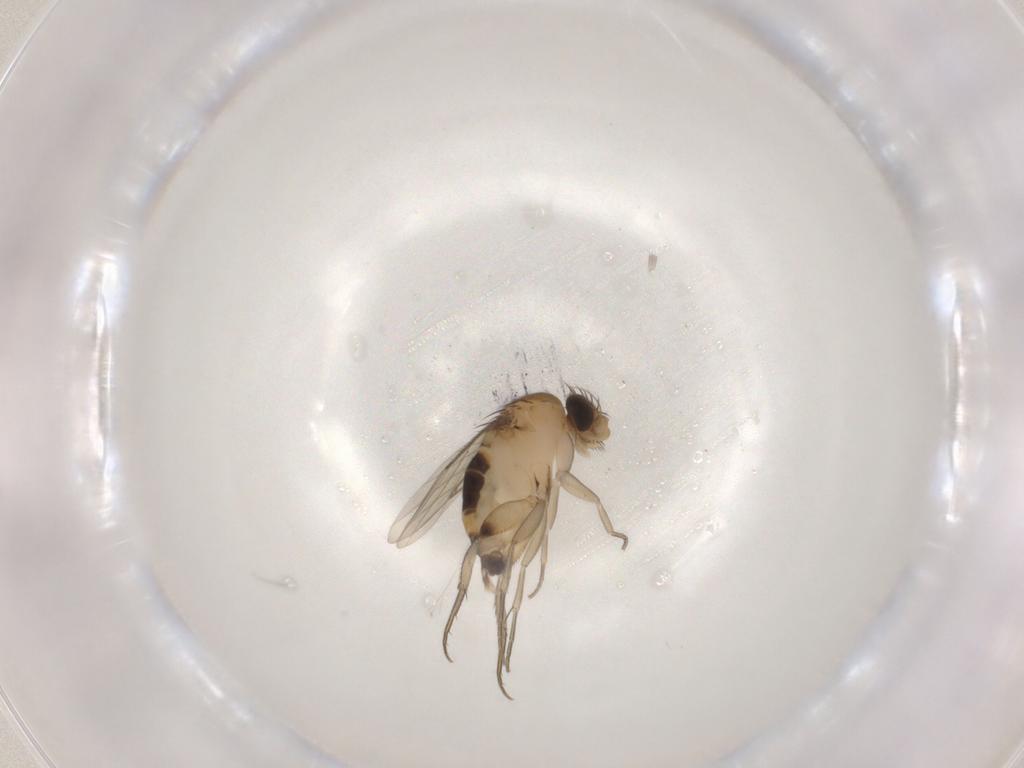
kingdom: Animalia
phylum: Arthropoda
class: Insecta
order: Diptera
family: Phoridae
